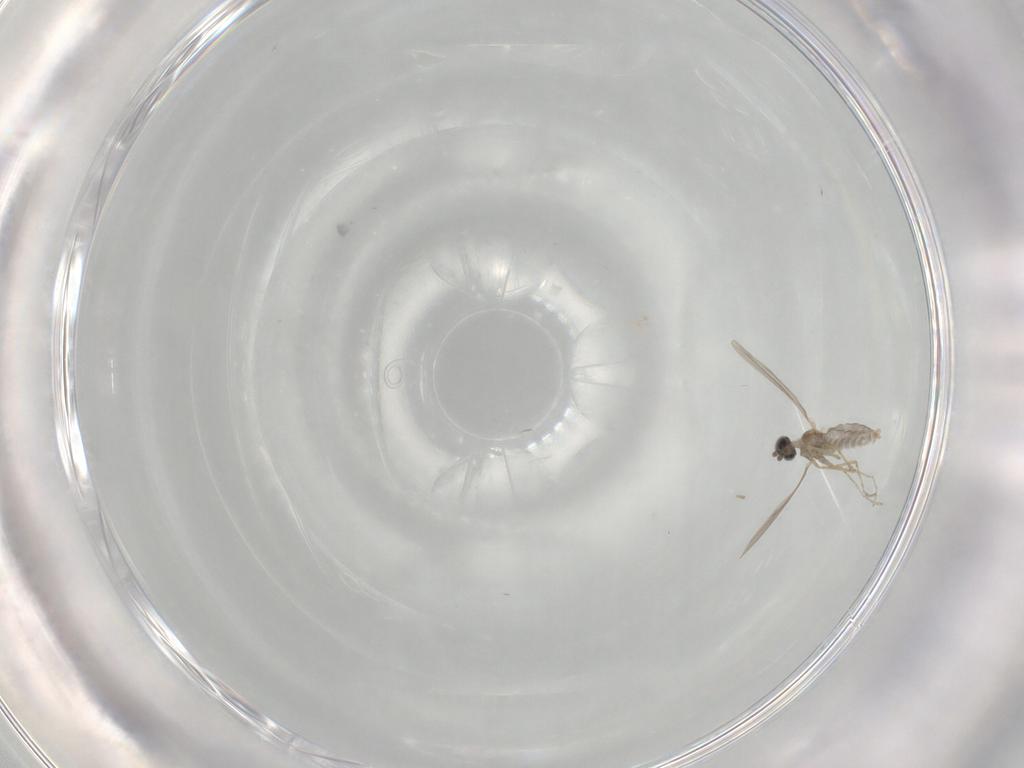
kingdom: Animalia
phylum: Arthropoda
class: Insecta
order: Diptera
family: Cecidomyiidae
